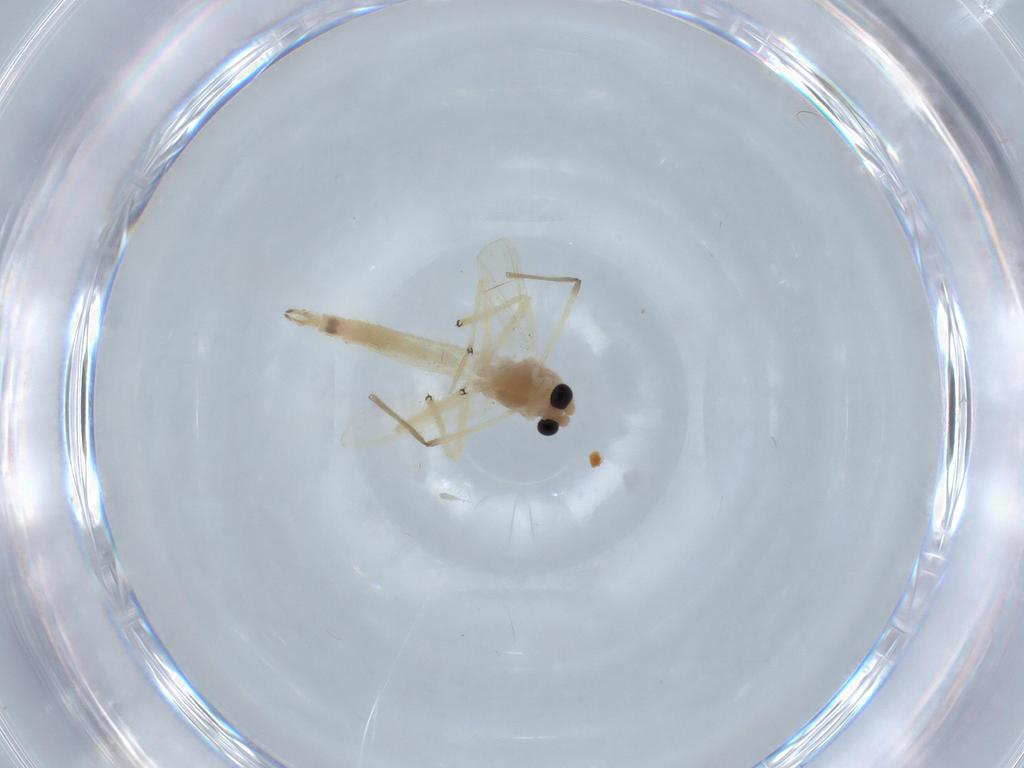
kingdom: Animalia
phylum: Arthropoda
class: Insecta
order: Diptera
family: Chironomidae
